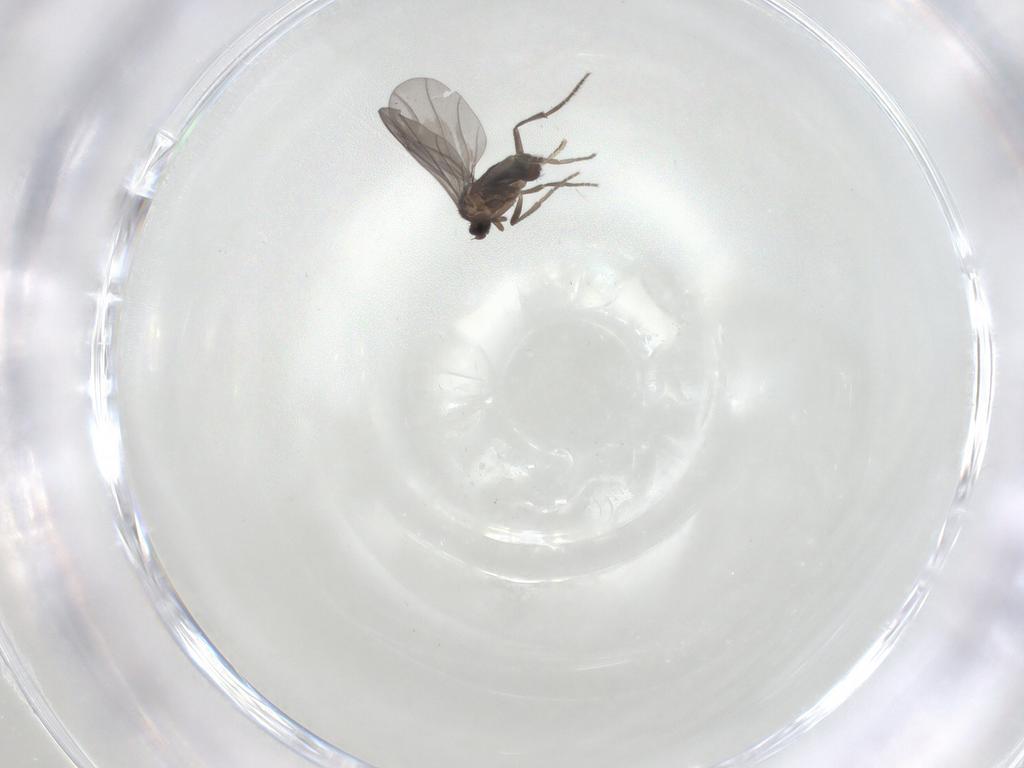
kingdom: Animalia
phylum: Arthropoda
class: Insecta
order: Diptera
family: Phoridae
